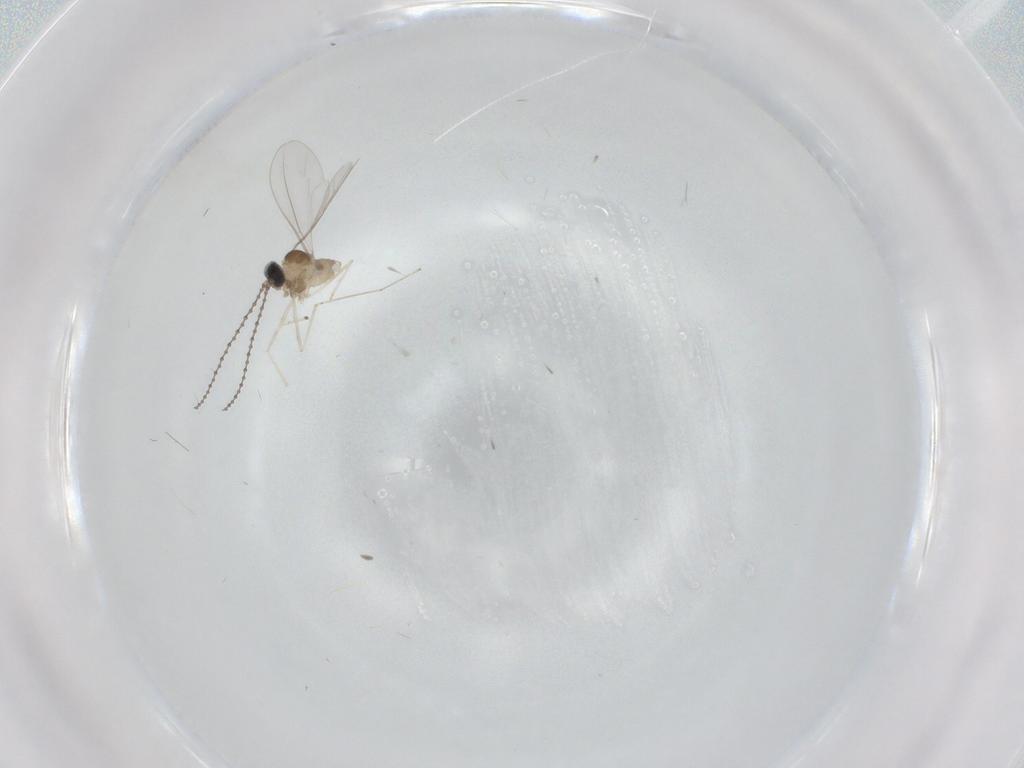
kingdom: Animalia
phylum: Arthropoda
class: Insecta
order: Diptera
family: Cecidomyiidae
